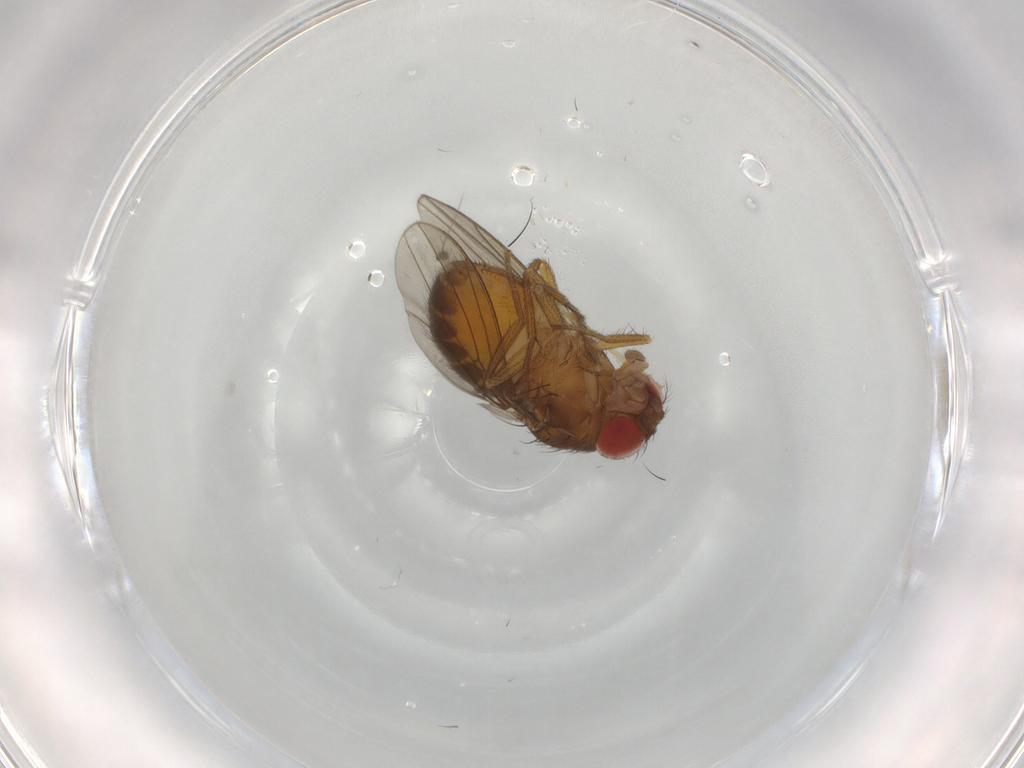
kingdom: Animalia
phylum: Arthropoda
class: Insecta
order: Diptera
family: Drosophilidae
